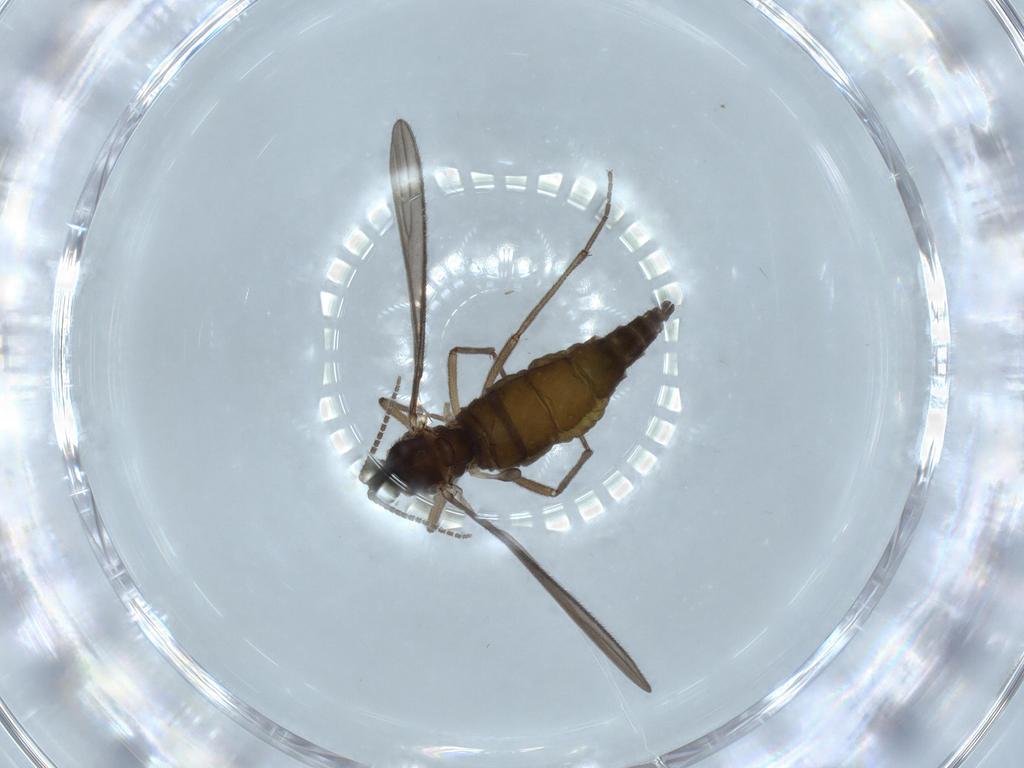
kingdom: Animalia
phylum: Arthropoda
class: Insecta
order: Diptera
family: Sciaridae
